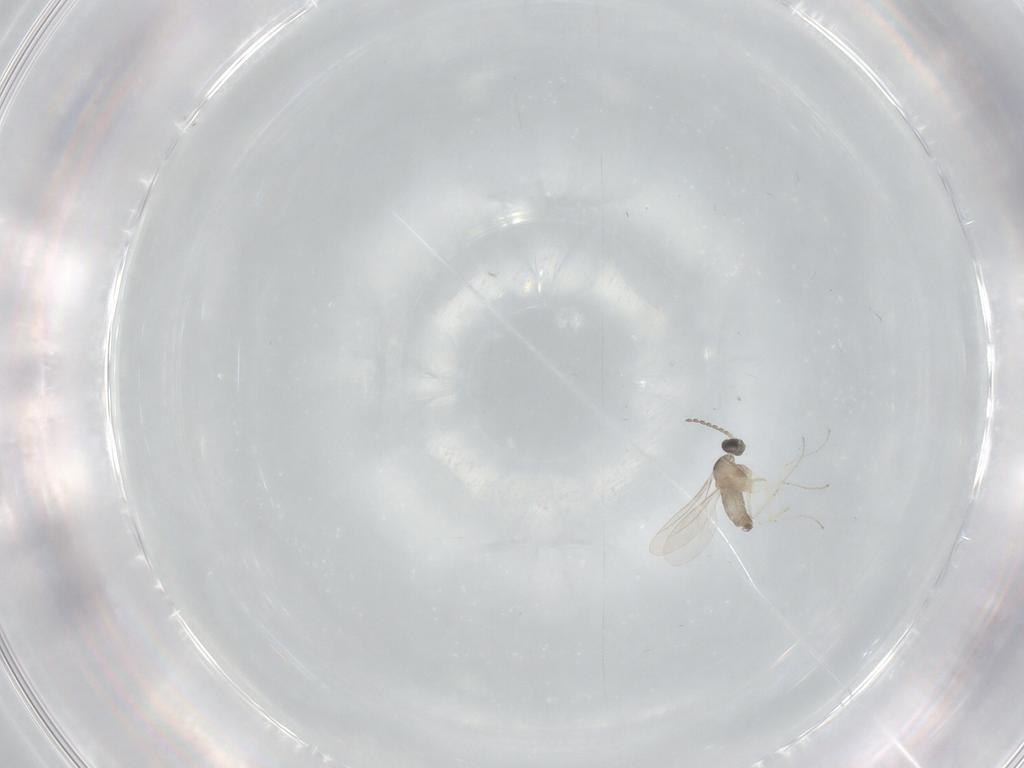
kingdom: Animalia
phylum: Arthropoda
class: Insecta
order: Diptera
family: Cecidomyiidae
